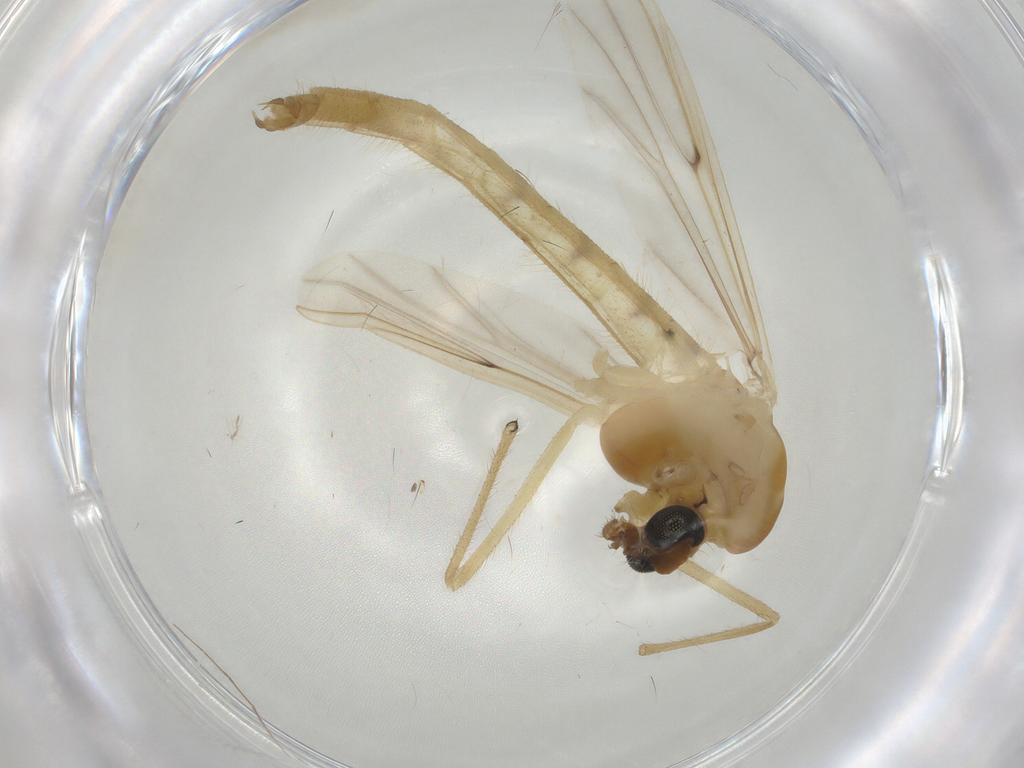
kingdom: Animalia
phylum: Arthropoda
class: Insecta
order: Diptera
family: Chironomidae
